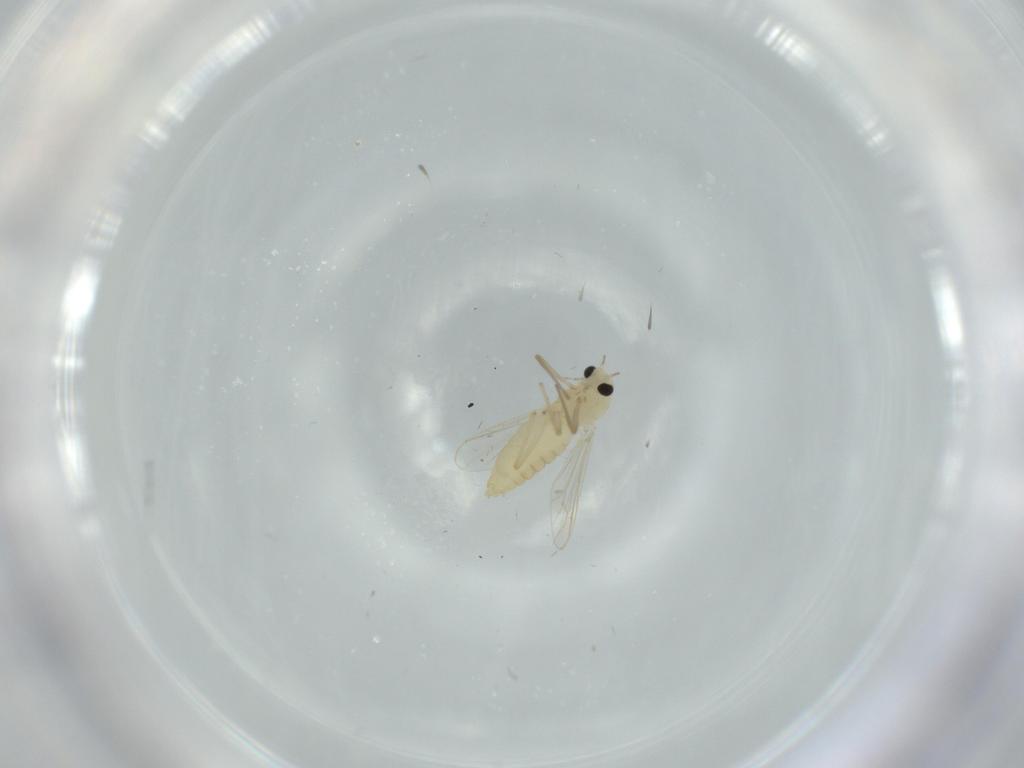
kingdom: Animalia
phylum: Arthropoda
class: Insecta
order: Diptera
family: Chironomidae
